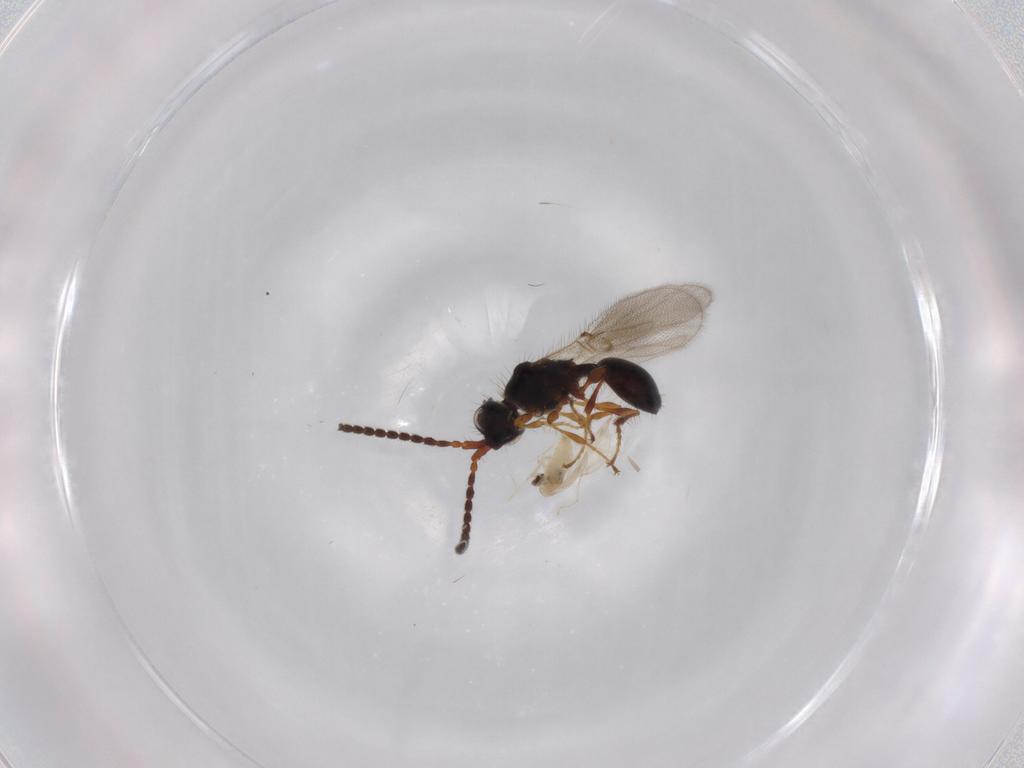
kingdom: Animalia
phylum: Arthropoda
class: Insecta
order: Diptera
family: Cecidomyiidae
